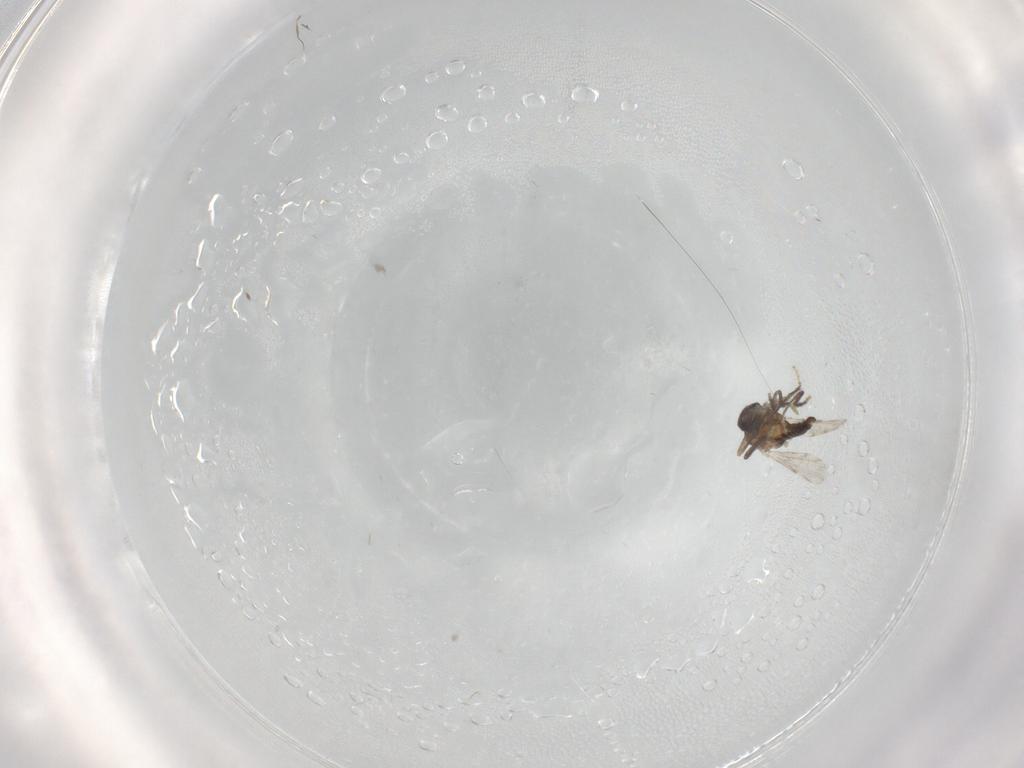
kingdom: Animalia
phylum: Arthropoda
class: Insecta
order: Diptera
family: Ceratopogonidae
